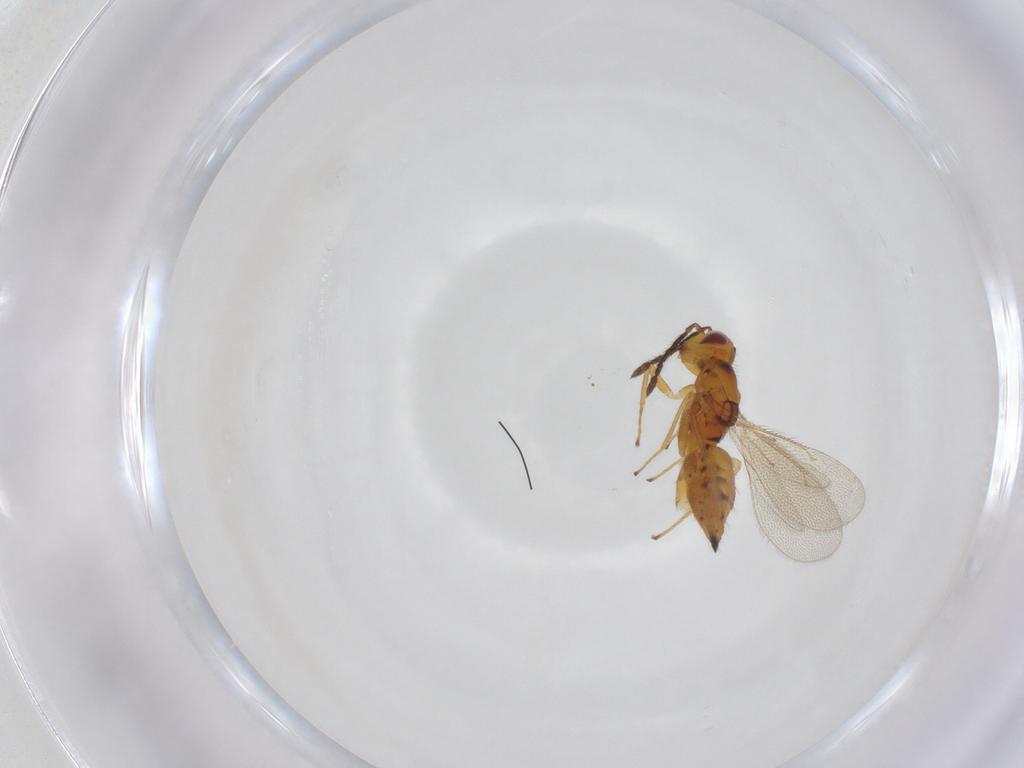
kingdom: Animalia
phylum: Arthropoda
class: Insecta
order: Hymenoptera
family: Eulophidae
